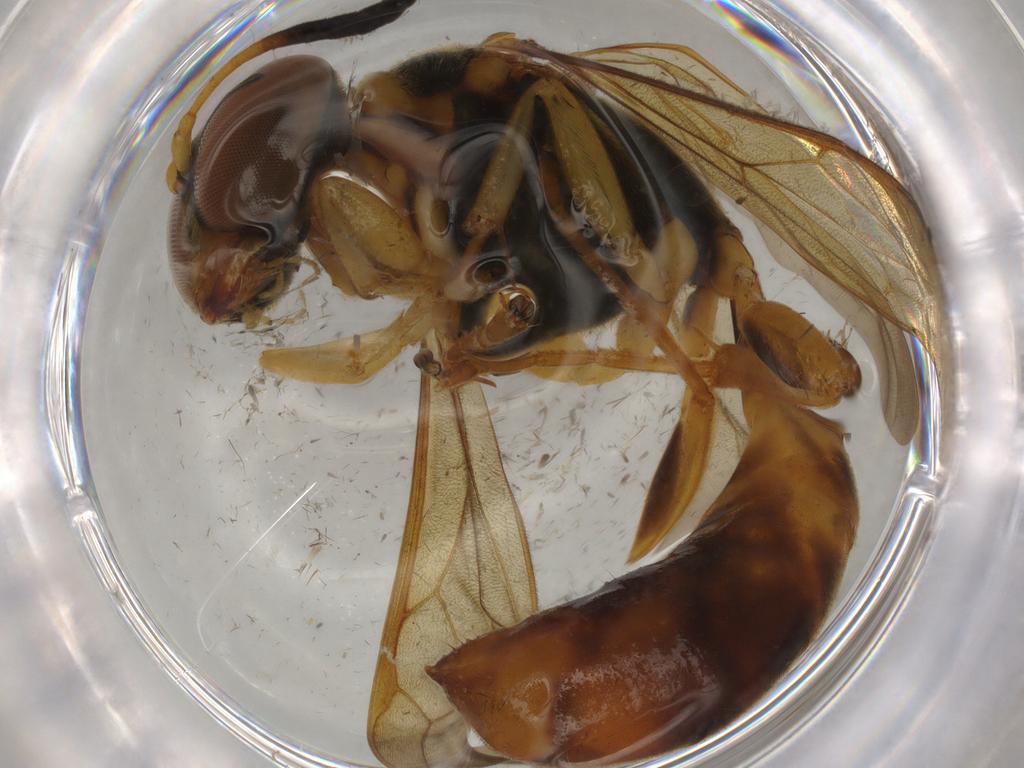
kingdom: Animalia
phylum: Arthropoda
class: Insecta
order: Hymenoptera
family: Crabronidae
